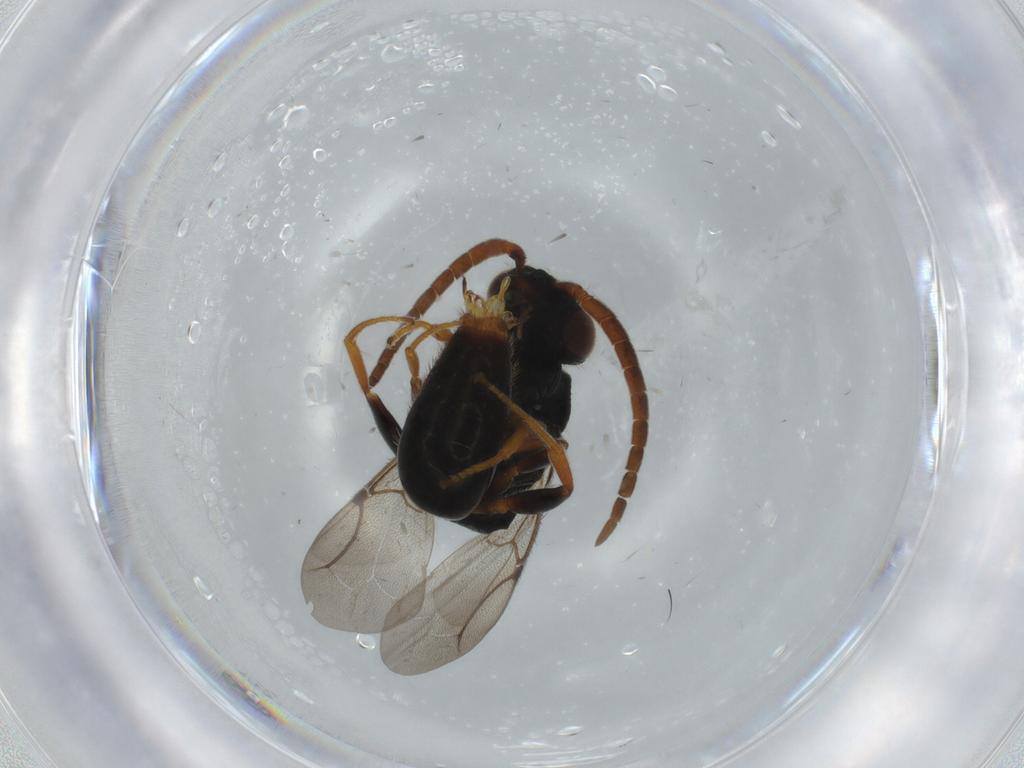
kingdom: Animalia
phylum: Arthropoda
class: Insecta
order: Hymenoptera
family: Bethylidae
